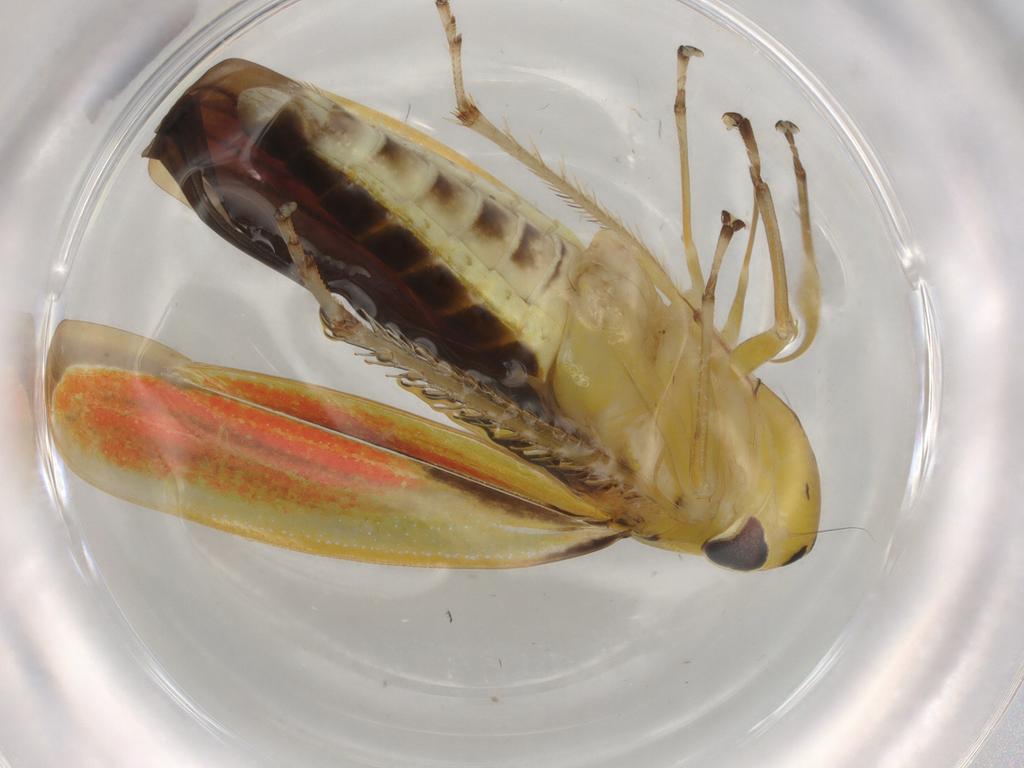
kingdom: Animalia
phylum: Arthropoda
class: Insecta
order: Hemiptera
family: Cicadellidae
